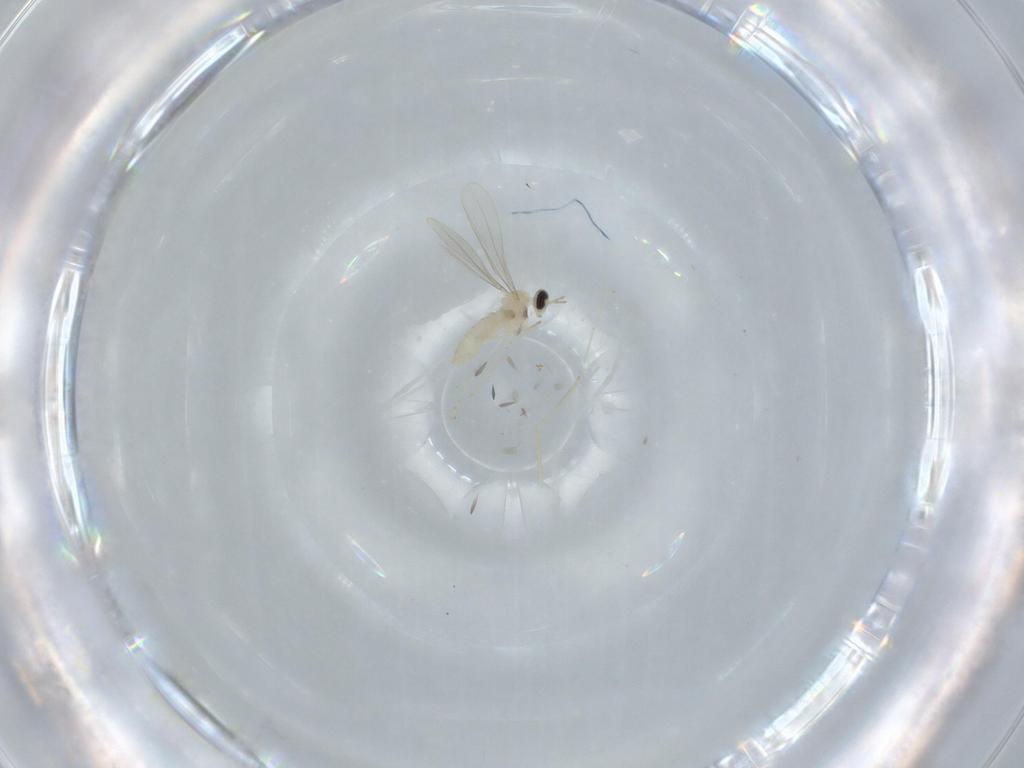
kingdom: Animalia
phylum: Arthropoda
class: Insecta
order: Diptera
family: Cecidomyiidae
